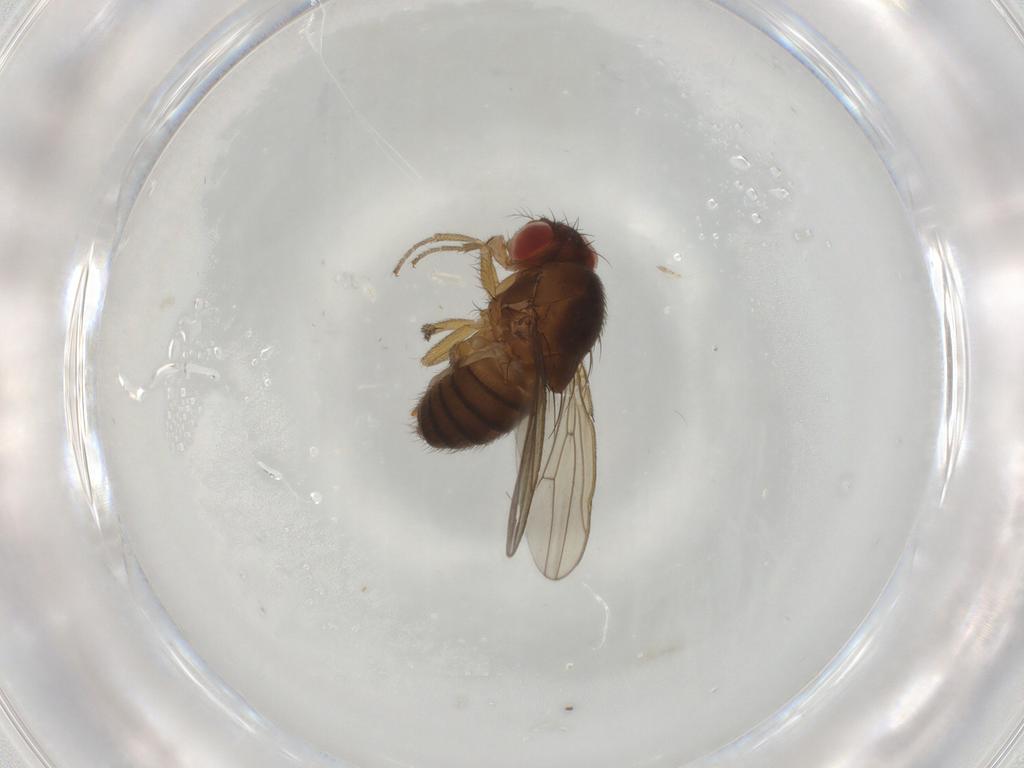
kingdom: Animalia
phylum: Arthropoda
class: Insecta
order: Diptera
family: Drosophilidae
